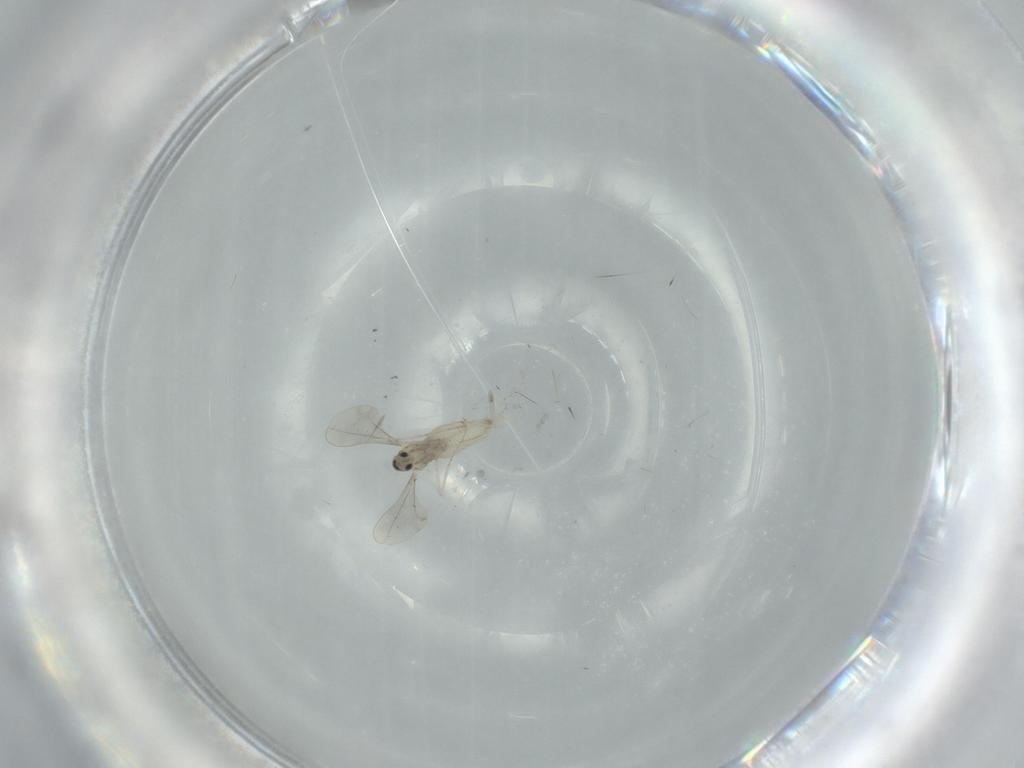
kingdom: Animalia
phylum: Arthropoda
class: Insecta
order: Diptera
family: Cecidomyiidae
